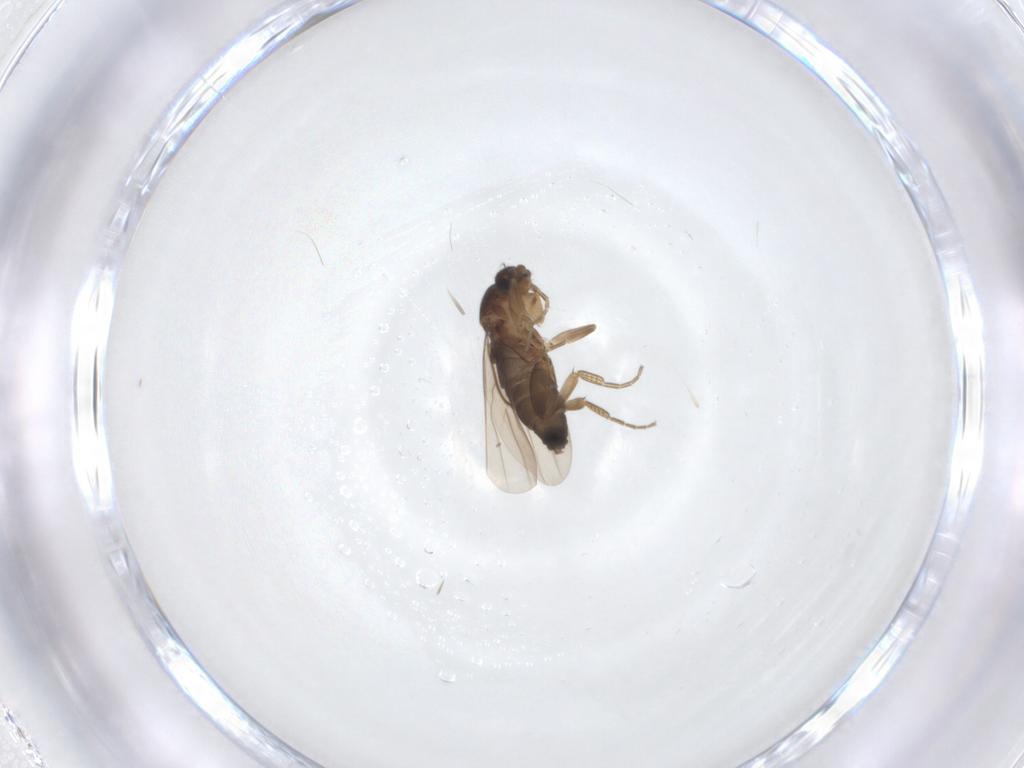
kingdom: Animalia
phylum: Arthropoda
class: Insecta
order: Diptera
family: Phoridae
